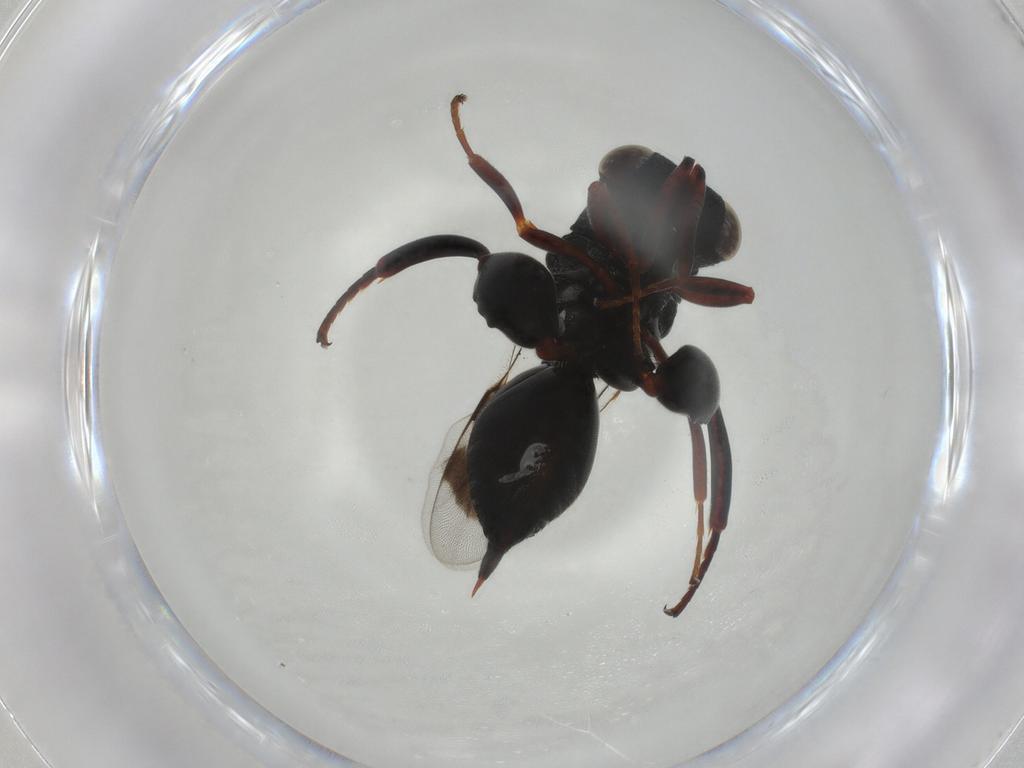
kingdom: Animalia
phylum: Arthropoda
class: Insecta
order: Hymenoptera
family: Chalcididae
